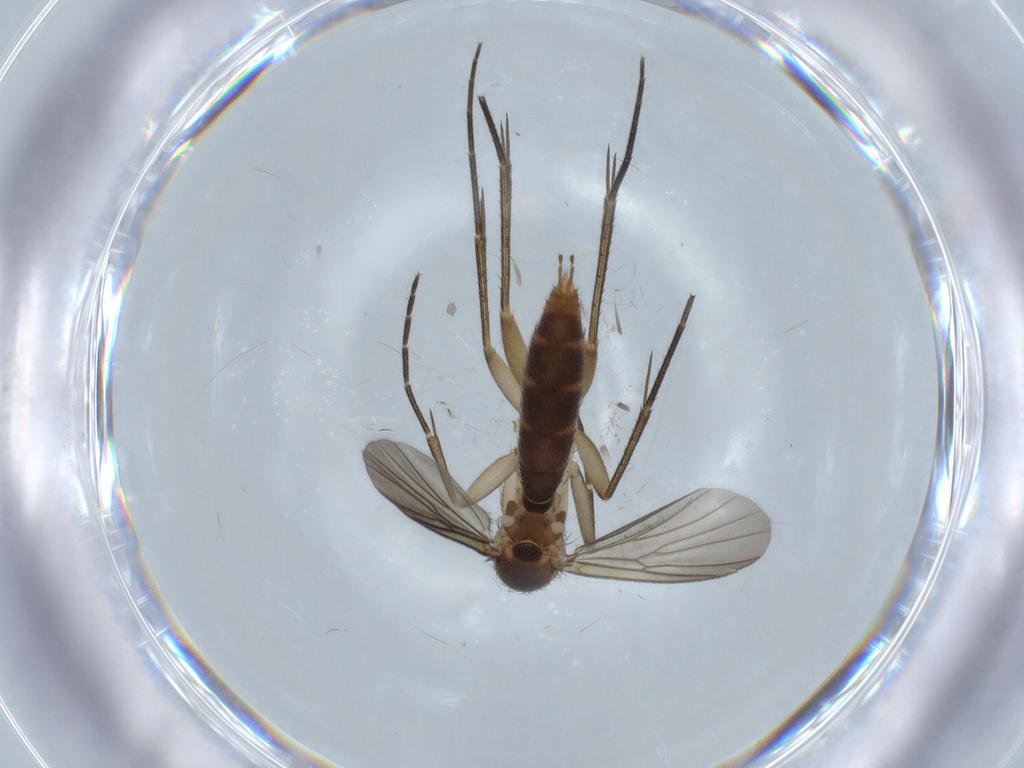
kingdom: Animalia
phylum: Arthropoda
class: Insecta
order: Diptera
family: Mycetophilidae
